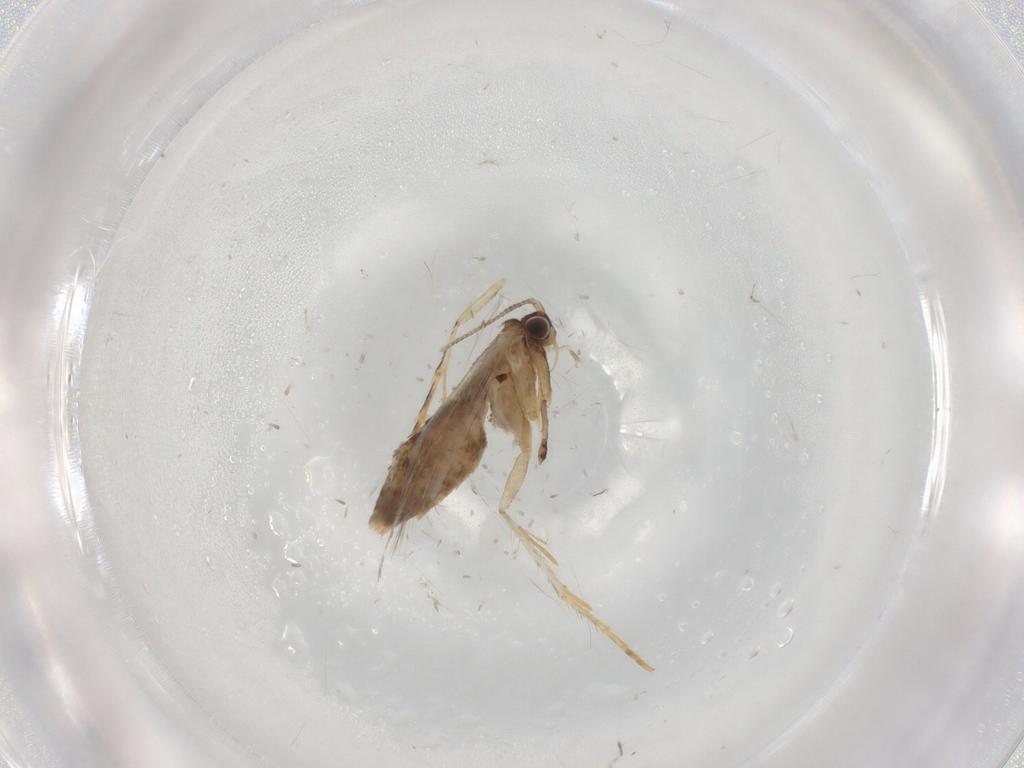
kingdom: Animalia
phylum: Arthropoda
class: Insecta
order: Lepidoptera
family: Tineidae
